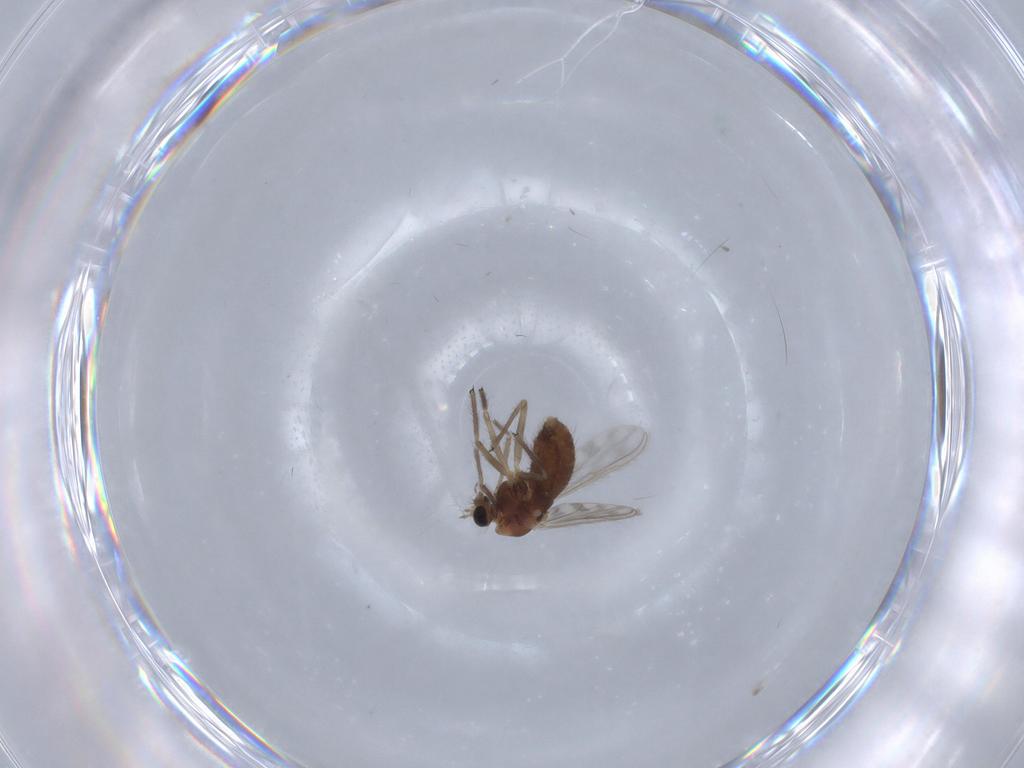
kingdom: Animalia
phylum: Arthropoda
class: Insecta
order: Diptera
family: Chironomidae
